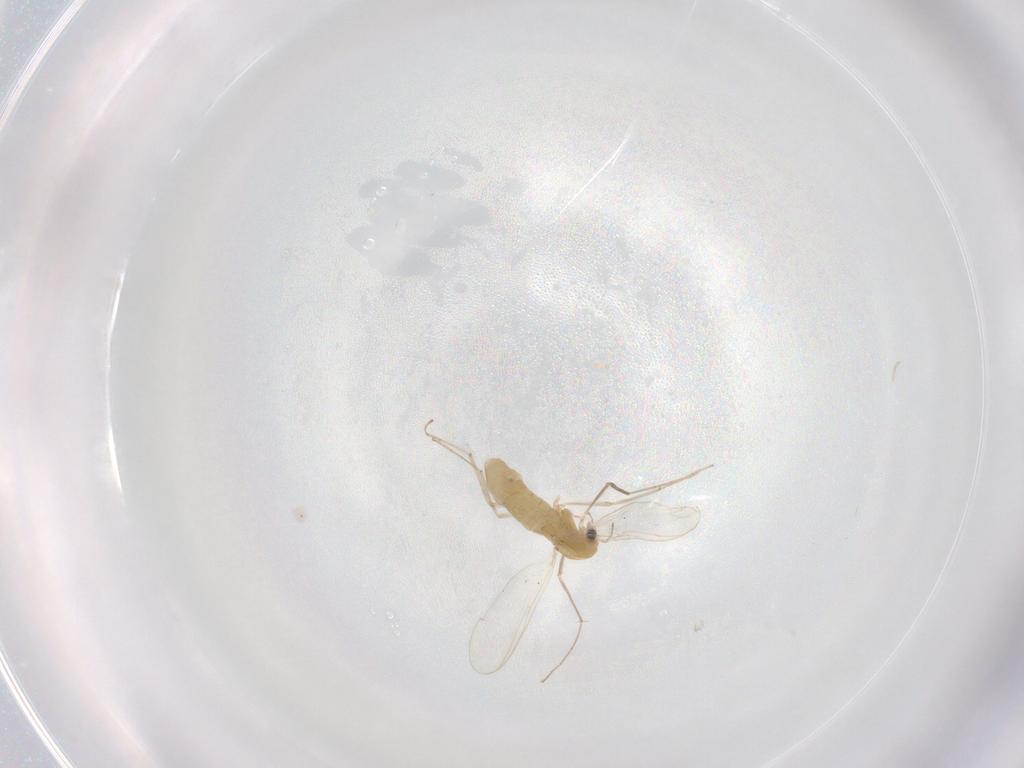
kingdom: Animalia
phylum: Arthropoda
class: Insecta
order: Diptera
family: Chironomidae
